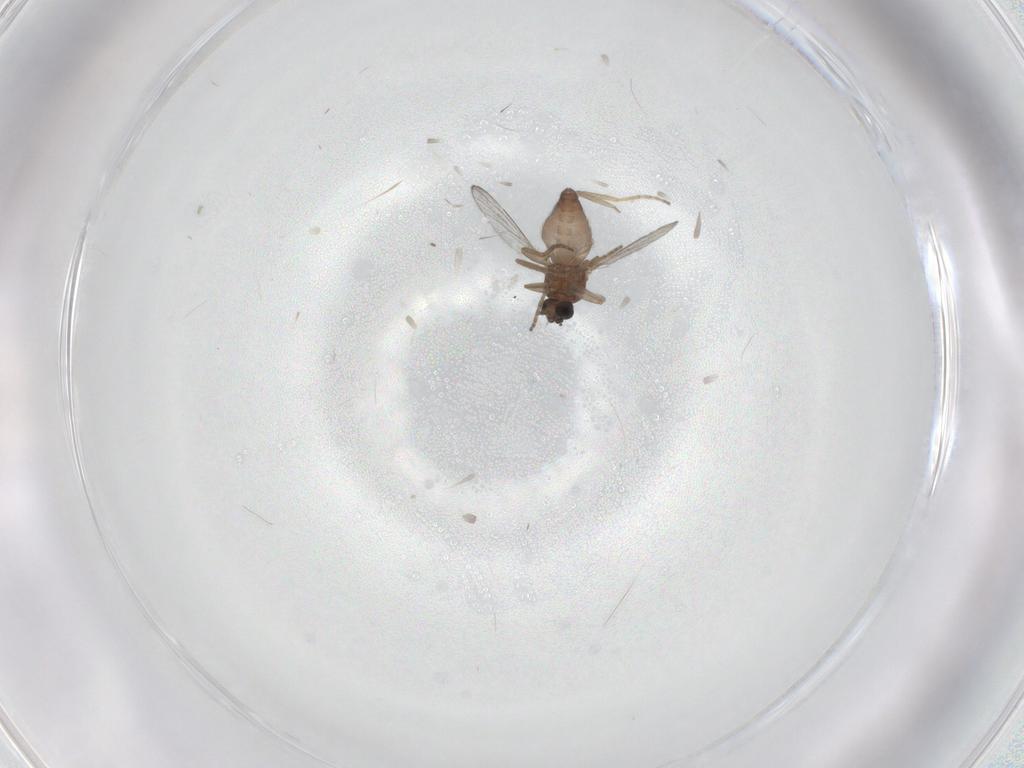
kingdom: Animalia
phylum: Arthropoda
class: Insecta
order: Diptera
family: Ceratopogonidae
